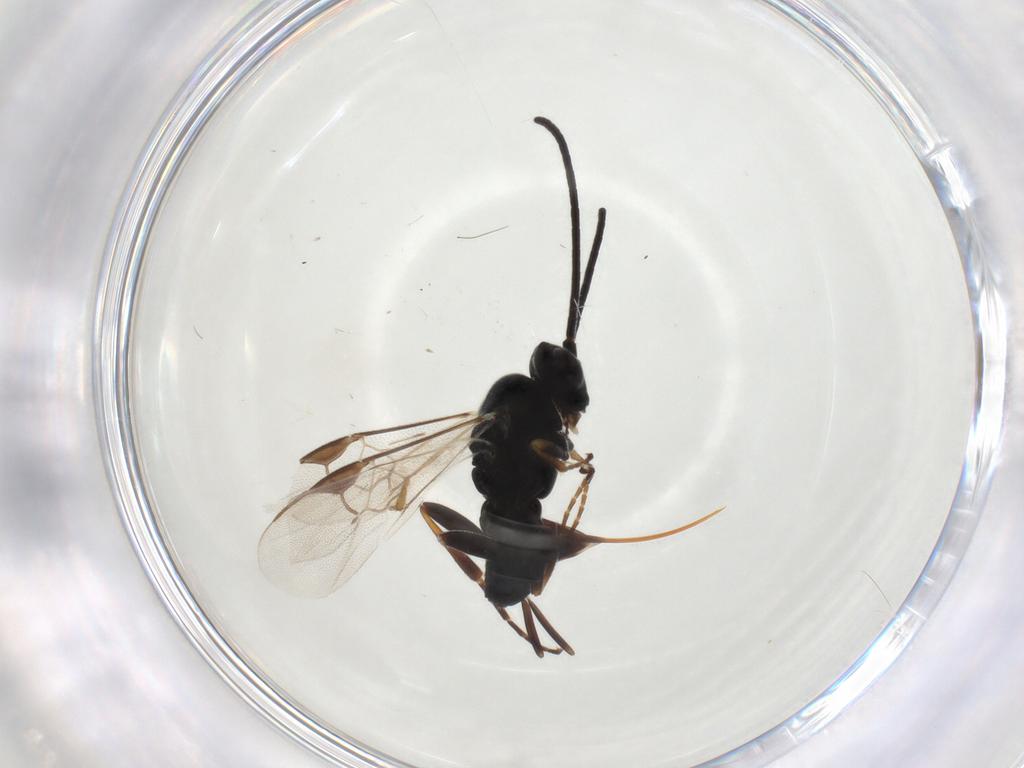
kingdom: Animalia
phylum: Arthropoda
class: Insecta
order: Hymenoptera
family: Braconidae
